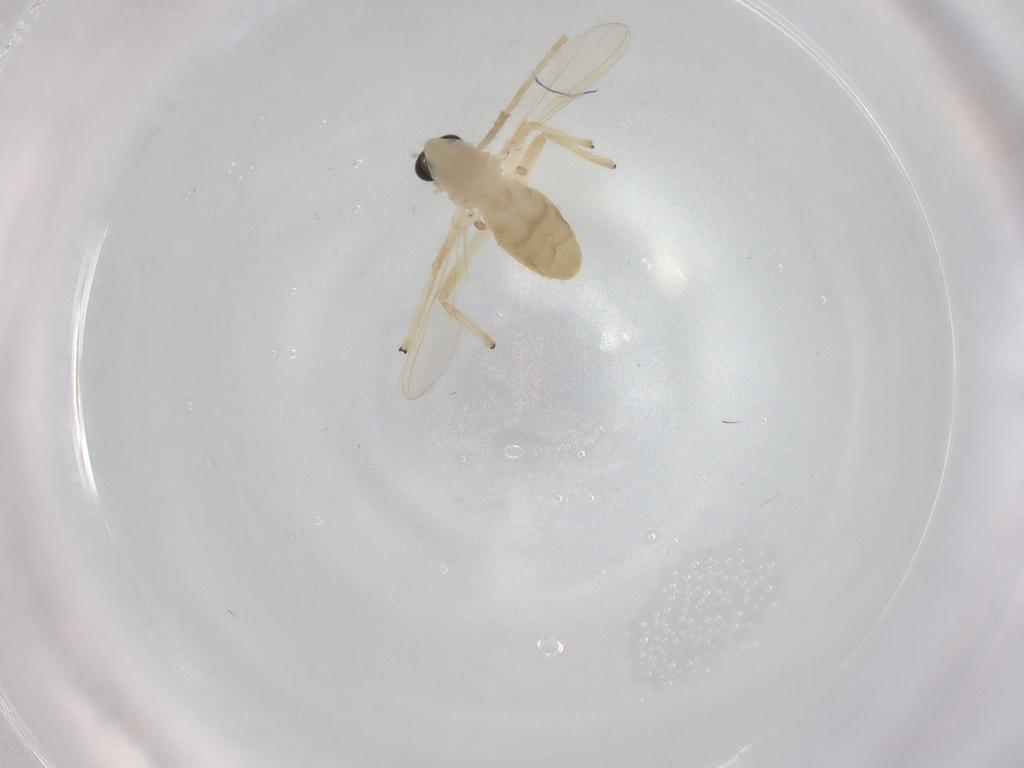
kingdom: Animalia
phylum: Arthropoda
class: Insecta
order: Diptera
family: Chironomidae
